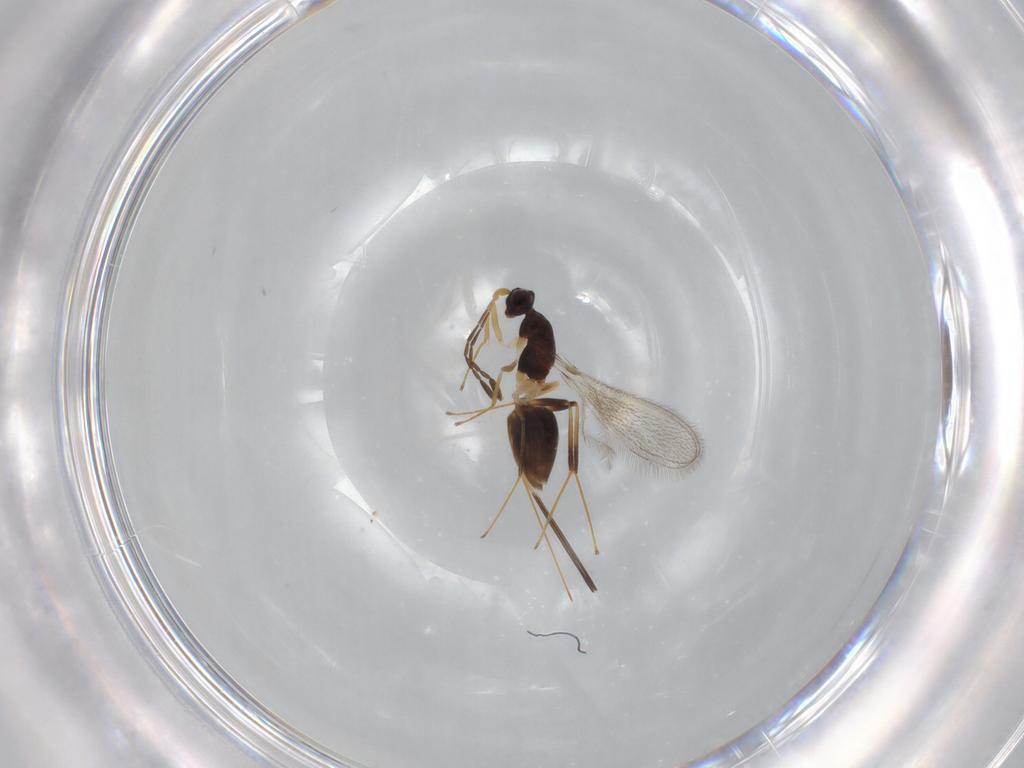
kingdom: Animalia
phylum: Arthropoda
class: Insecta
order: Hymenoptera
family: Mymaridae
